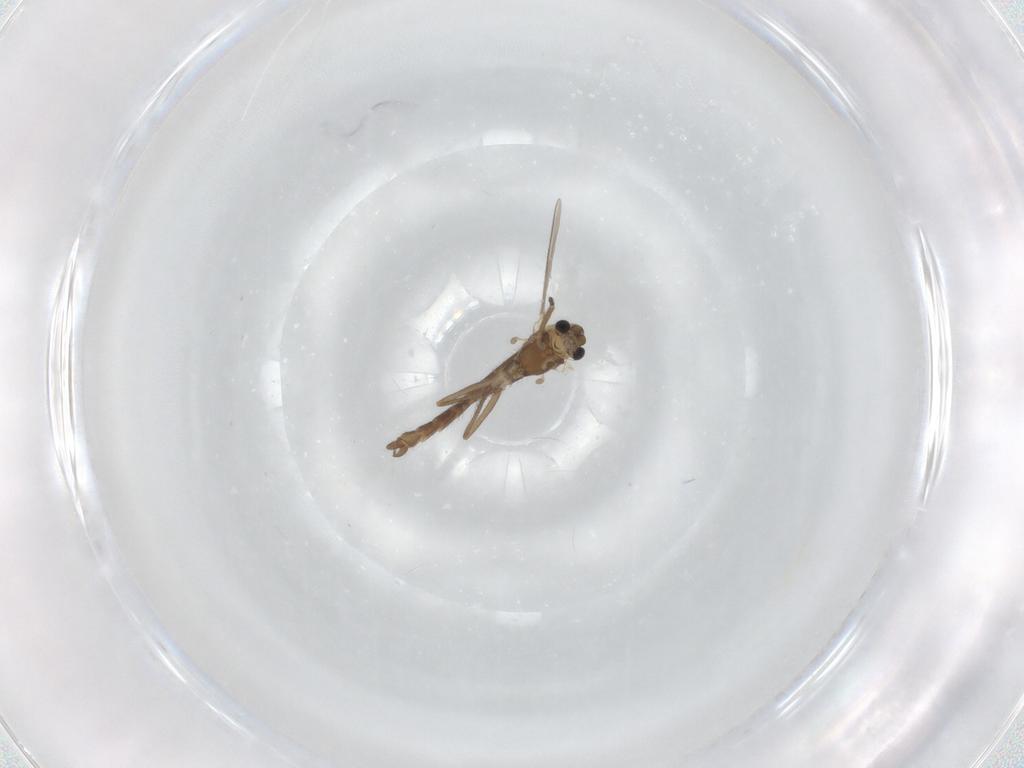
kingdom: Animalia
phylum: Arthropoda
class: Insecta
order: Diptera
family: Chironomidae
